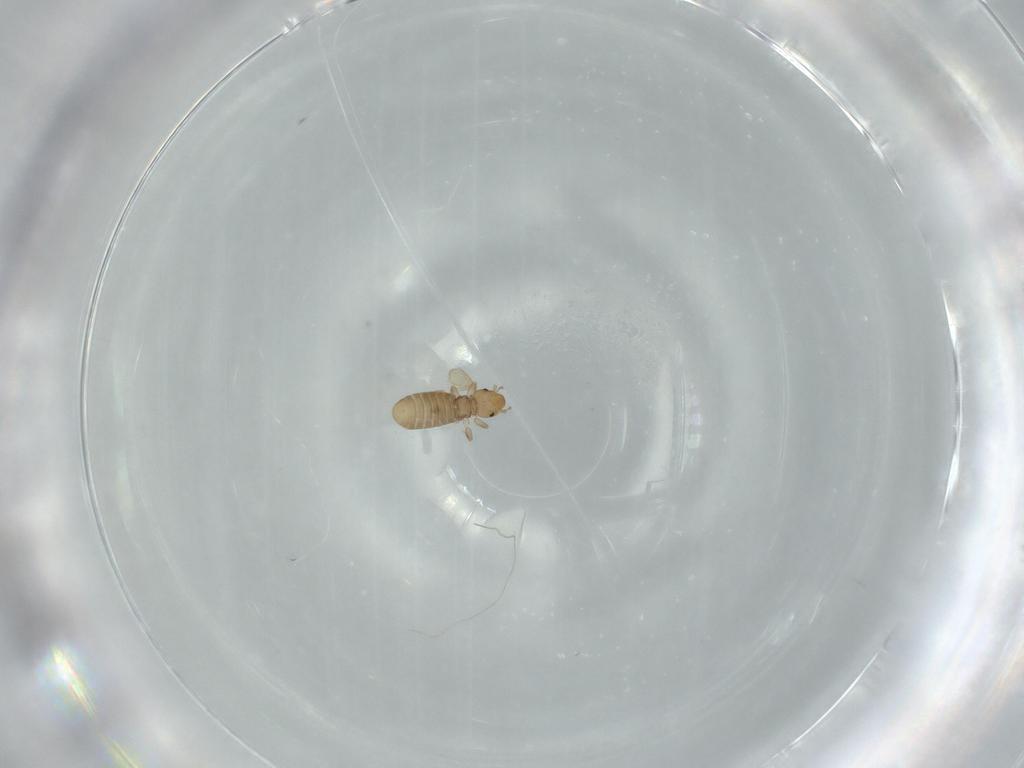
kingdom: Animalia
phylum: Arthropoda
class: Insecta
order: Psocodea
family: Liposcelididae
